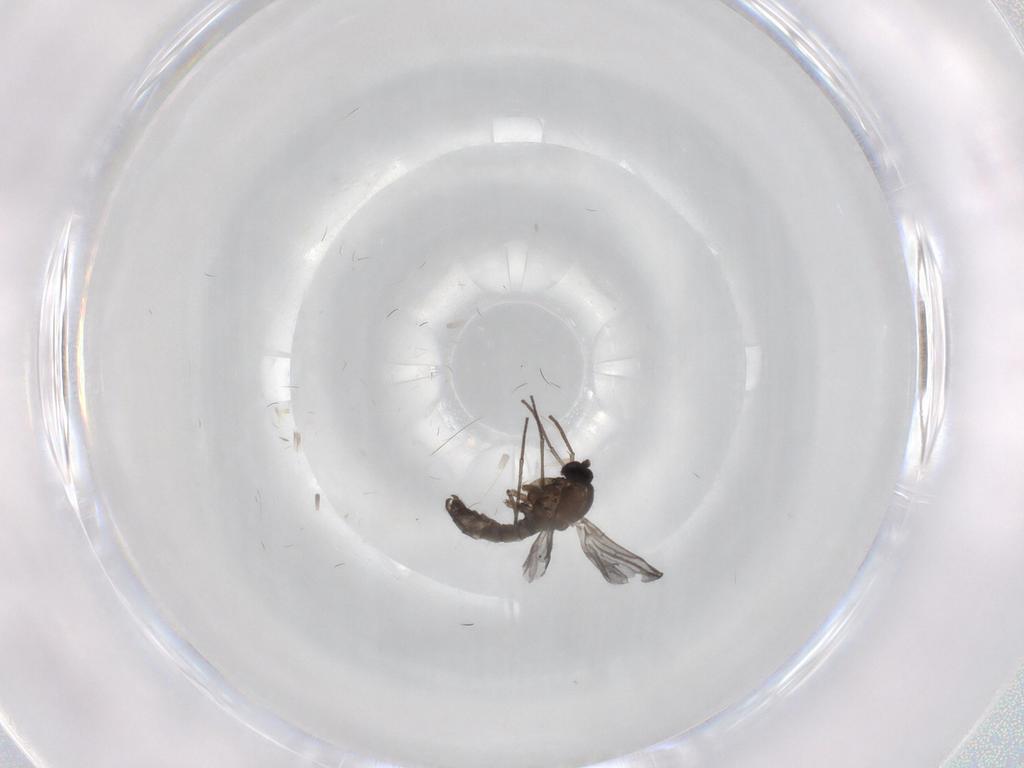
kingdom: Animalia
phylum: Arthropoda
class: Insecta
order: Diptera
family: Sciaridae
